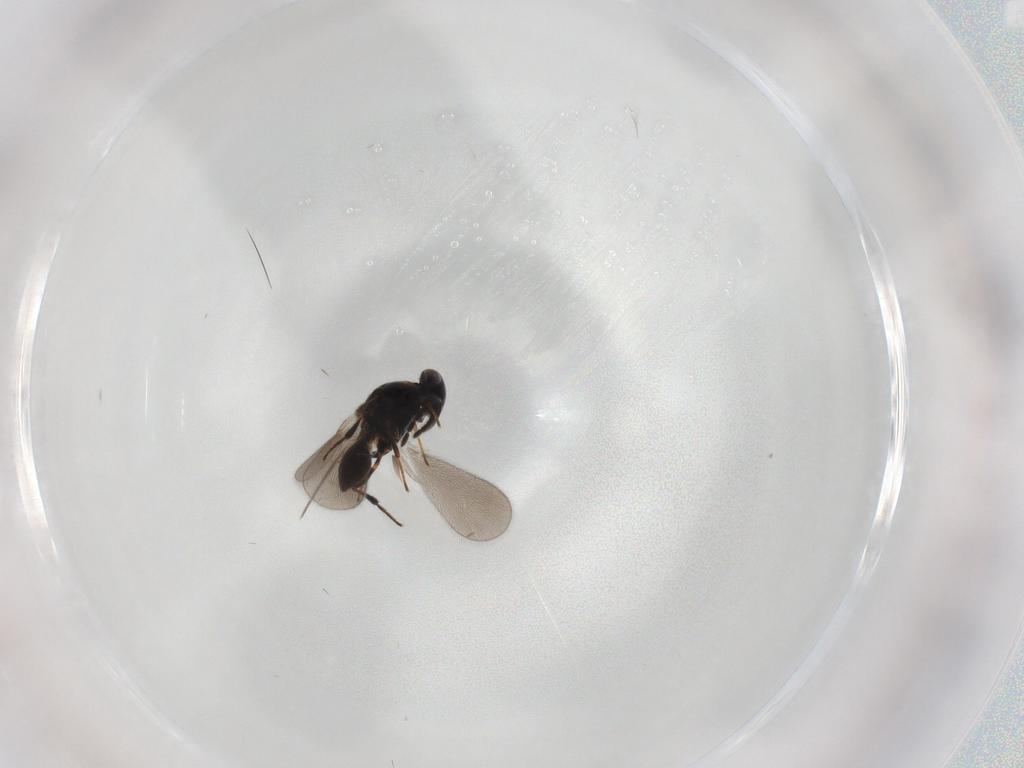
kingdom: Animalia
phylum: Arthropoda
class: Insecta
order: Hymenoptera
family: Platygastridae
